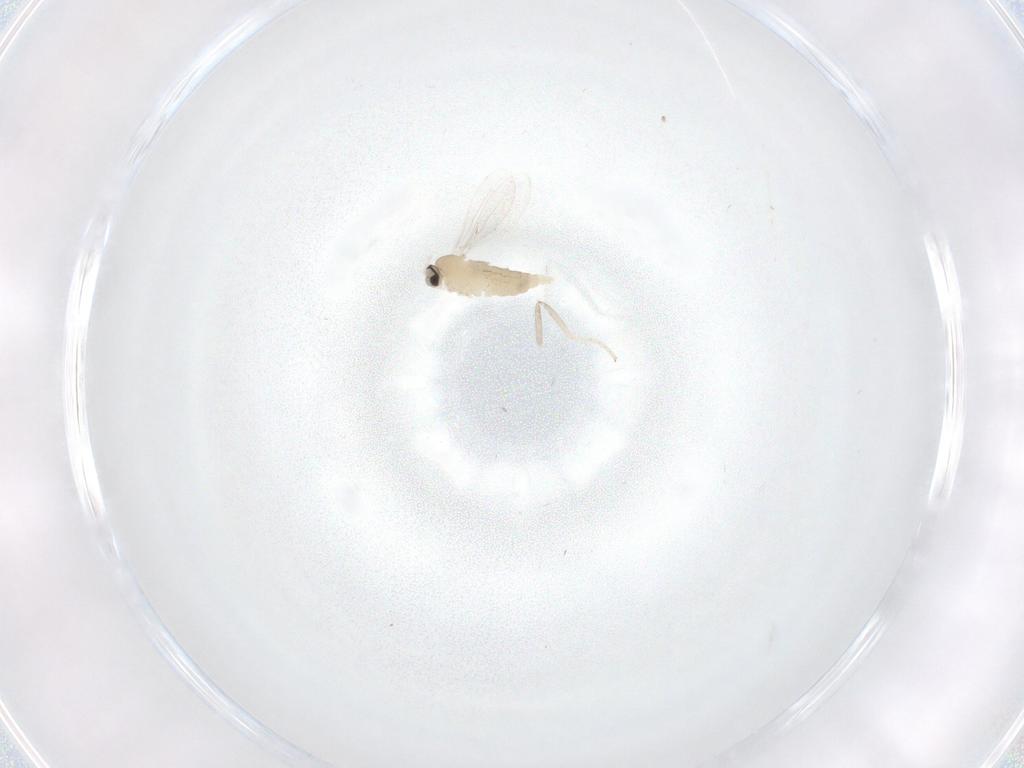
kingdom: Animalia
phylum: Arthropoda
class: Insecta
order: Diptera
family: Cecidomyiidae
